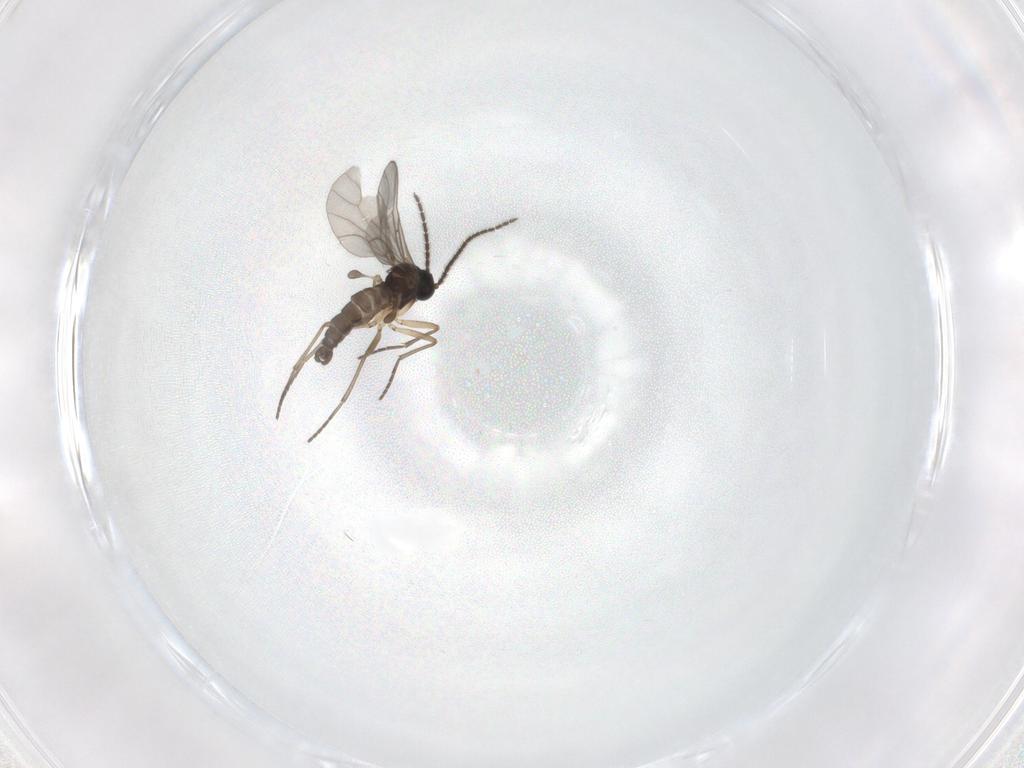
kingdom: Animalia
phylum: Arthropoda
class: Insecta
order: Diptera
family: Sciaridae
